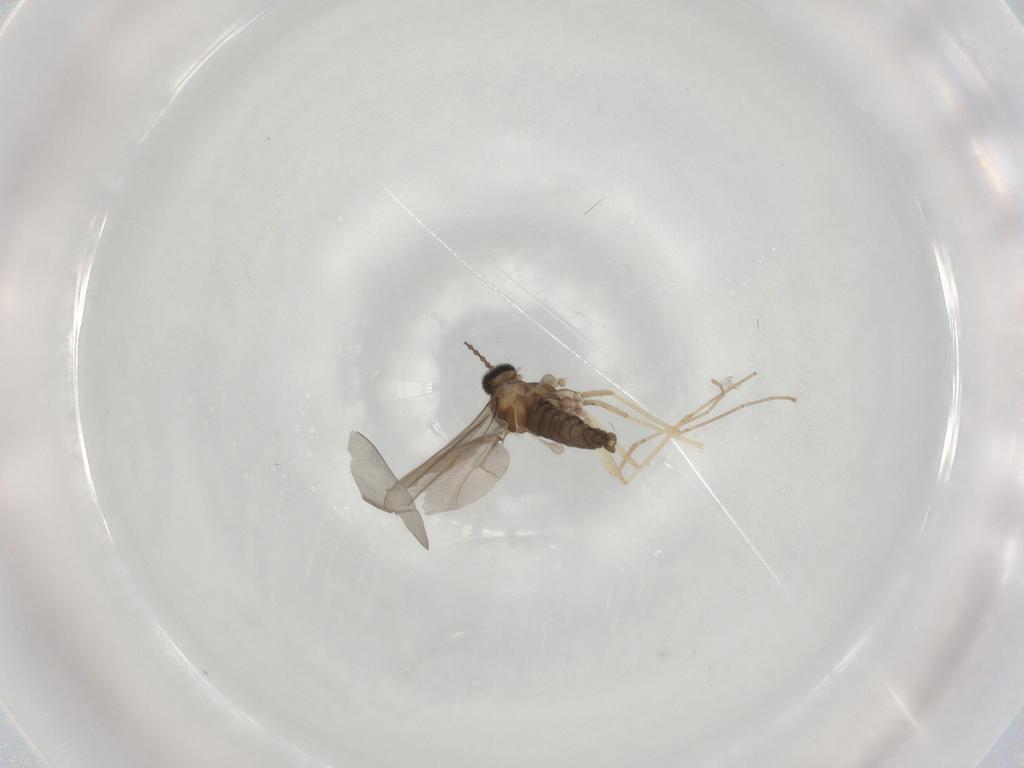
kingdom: Animalia
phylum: Arthropoda
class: Insecta
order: Diptera
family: Cecidomyiidae
